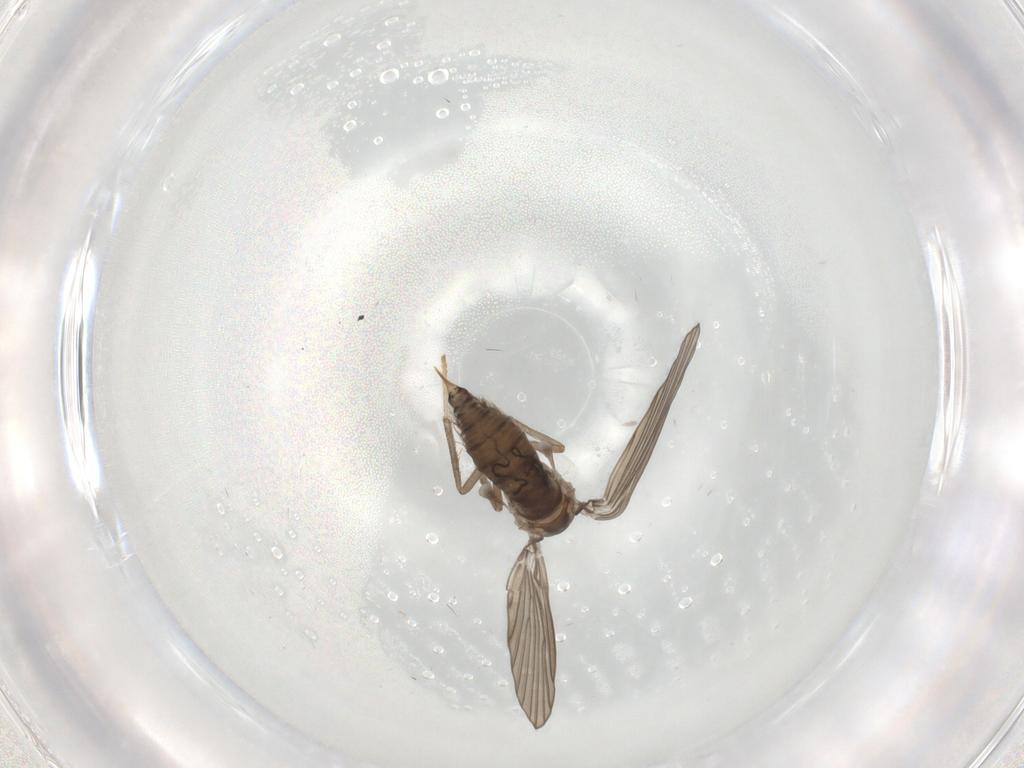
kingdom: Animalia
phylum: Arthropoda
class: Insecta
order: Diptera
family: Psychodidae
